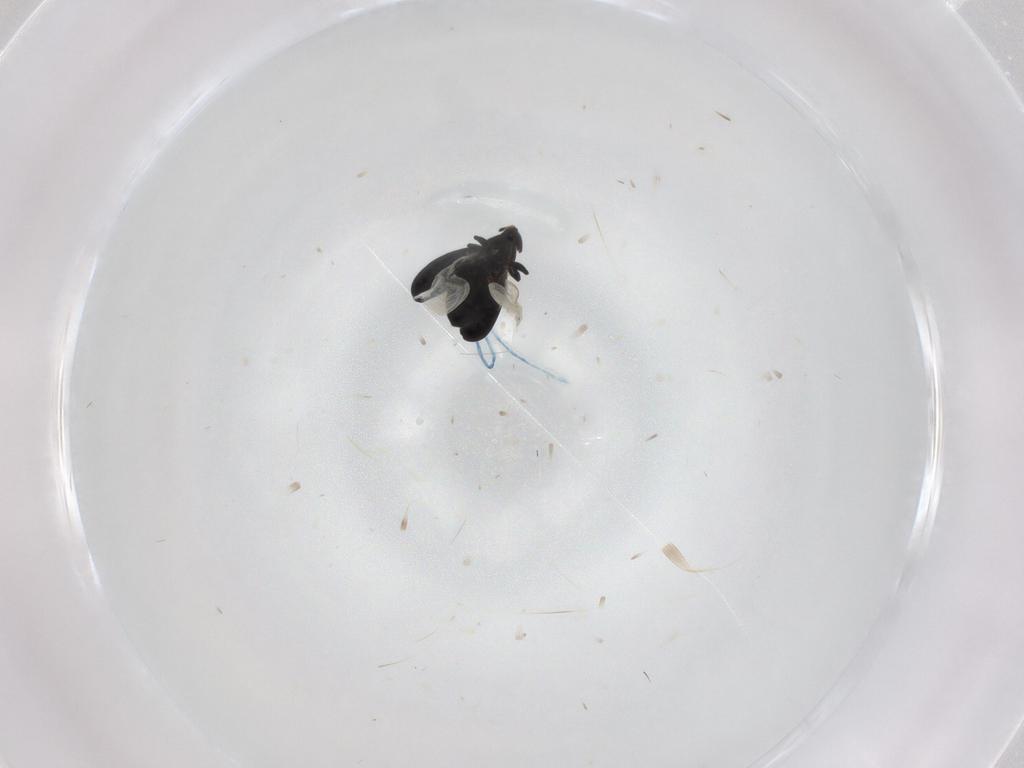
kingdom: Animalia
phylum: Arthropoda
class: Insecta
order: Coleoptera
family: Curculionidae
